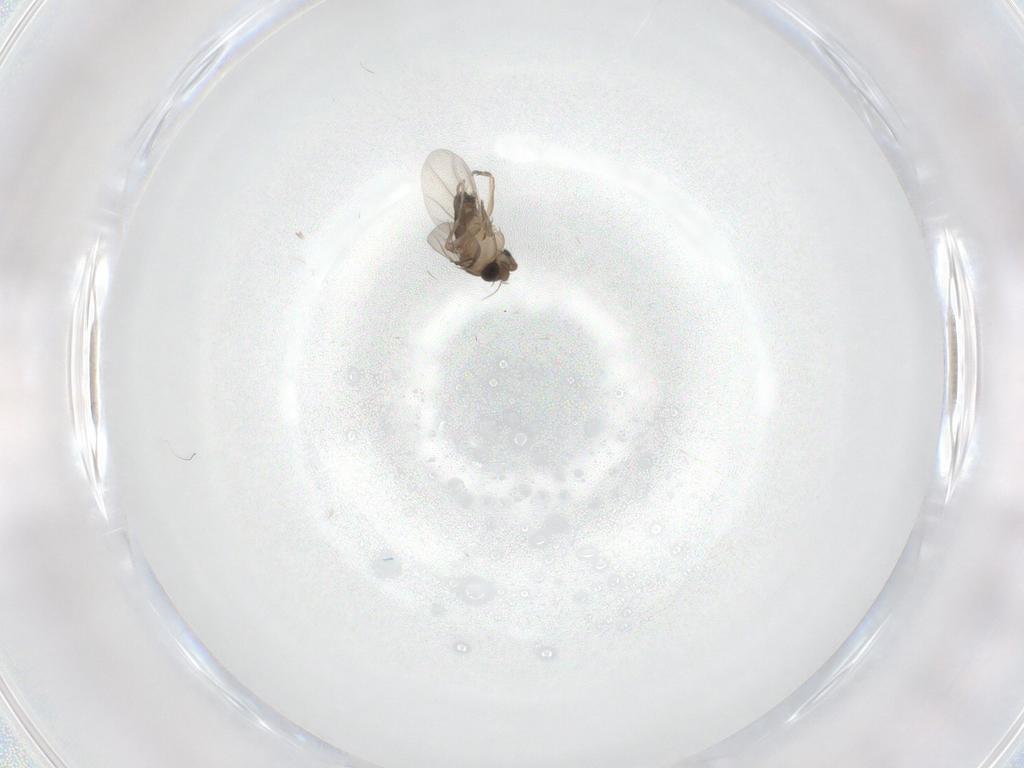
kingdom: Animalia
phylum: Arthropoda
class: Insecta
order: Diptera
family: Phoridae
